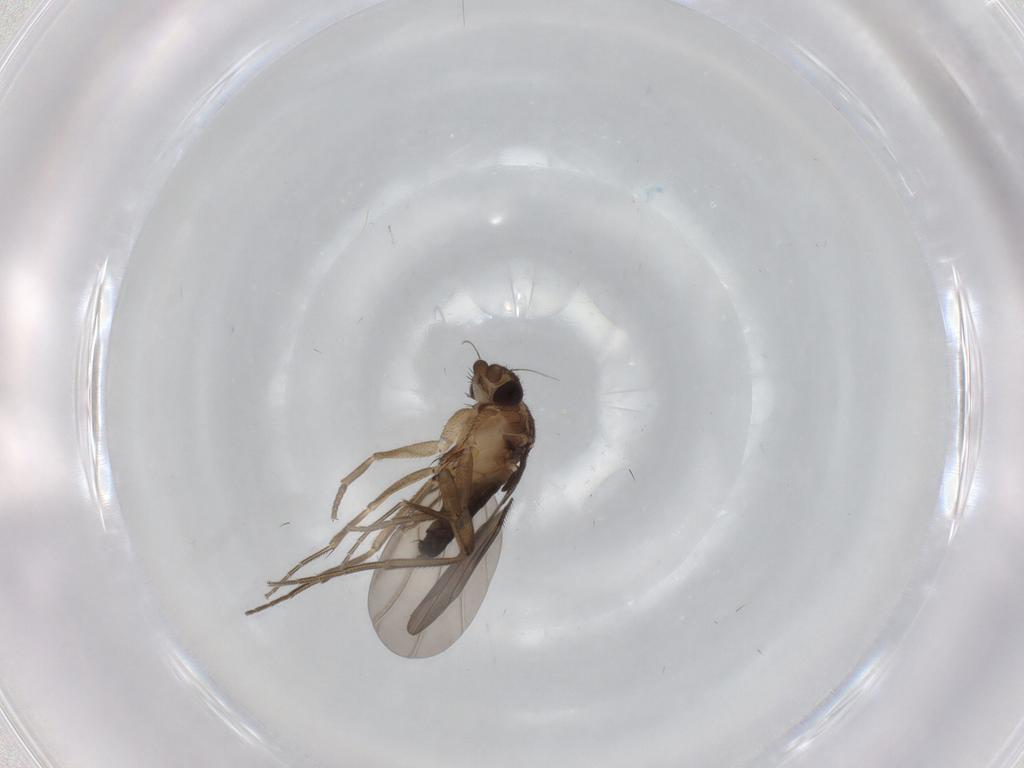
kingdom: Animalia
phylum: Arthropoda
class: Insecta
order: Diptera
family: Phoridae
